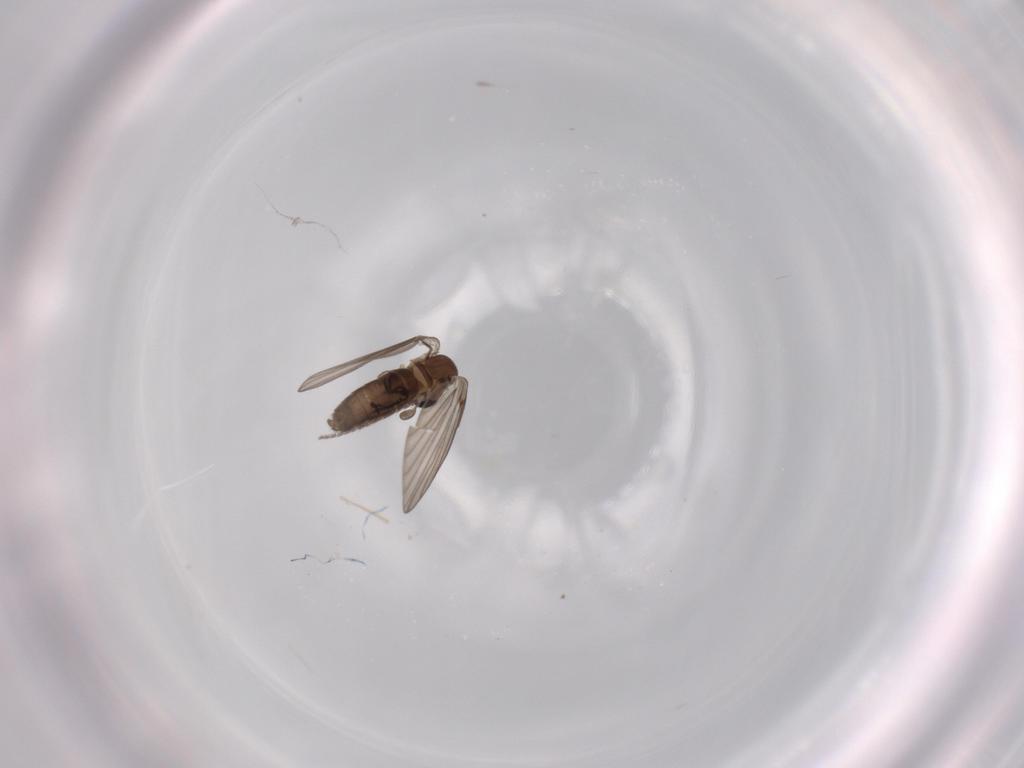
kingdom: Animalia
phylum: Arthropoda
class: Insecta
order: Diptera
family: Psychodidae
